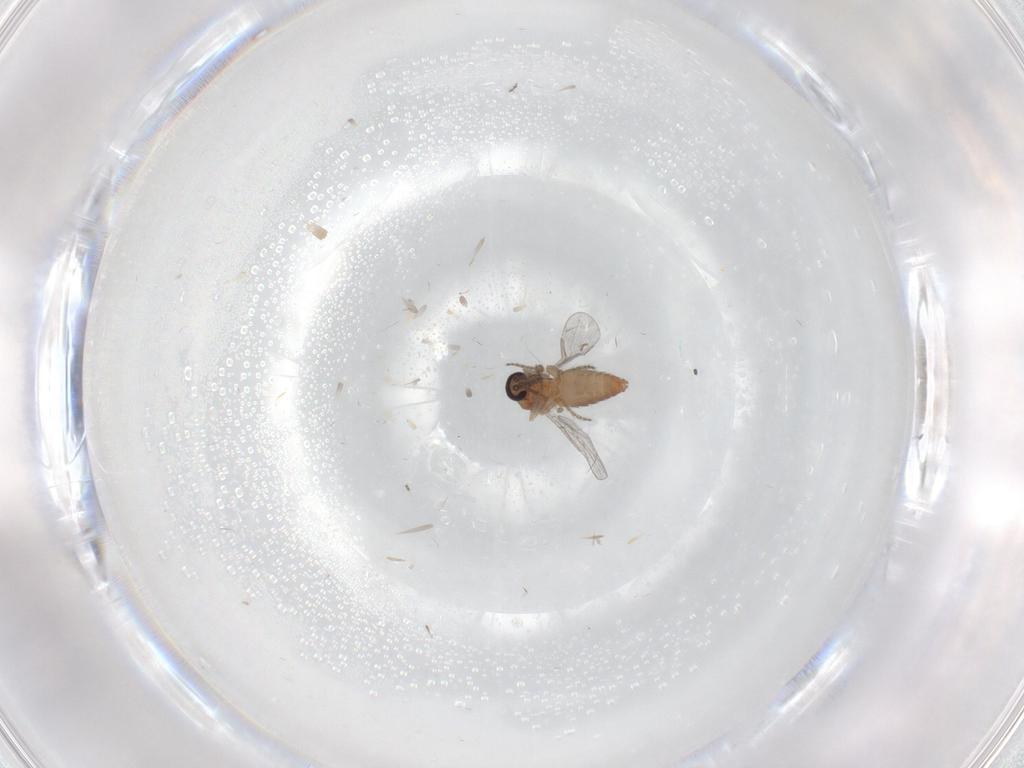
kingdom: Animalia
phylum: Arthropoda
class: Insecta
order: Diptera
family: Ceratopogonidae
